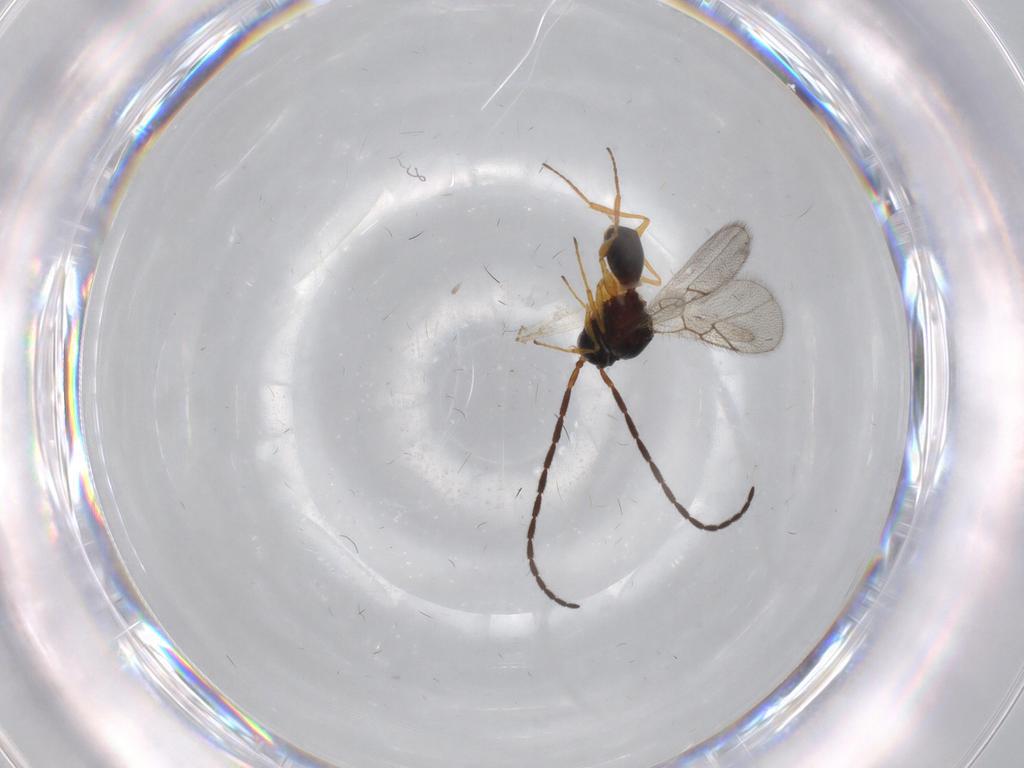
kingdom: Animalia
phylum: Arthropoda
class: Insecta
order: Hymenoptera
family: Figitidae
